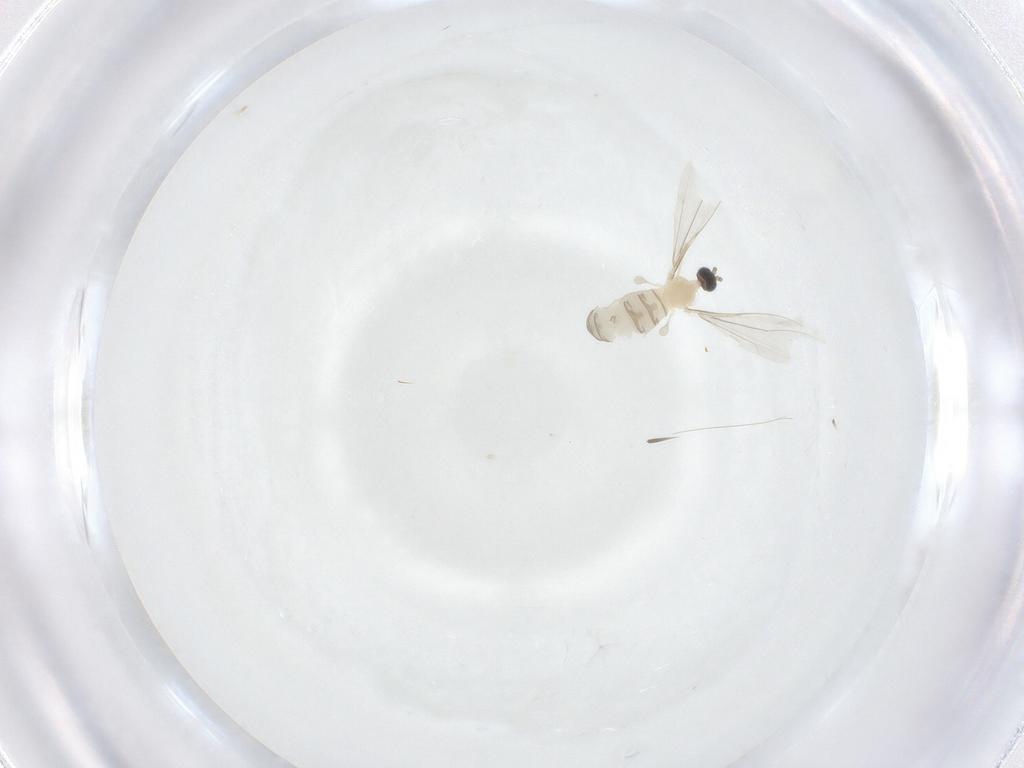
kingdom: Animalia
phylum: Arthropoda
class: Insecta
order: Diptera
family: Cecidomyiidae
